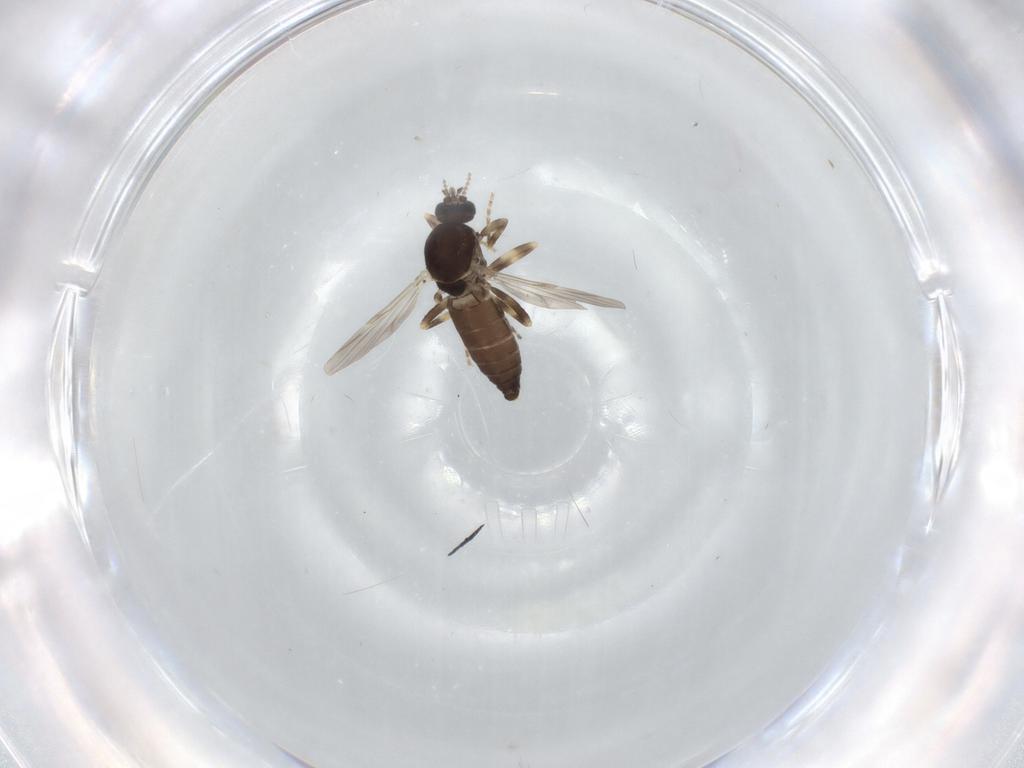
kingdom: Animalia
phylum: Arthropoda
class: Insecta
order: Diptera
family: Ceratopogonidae
